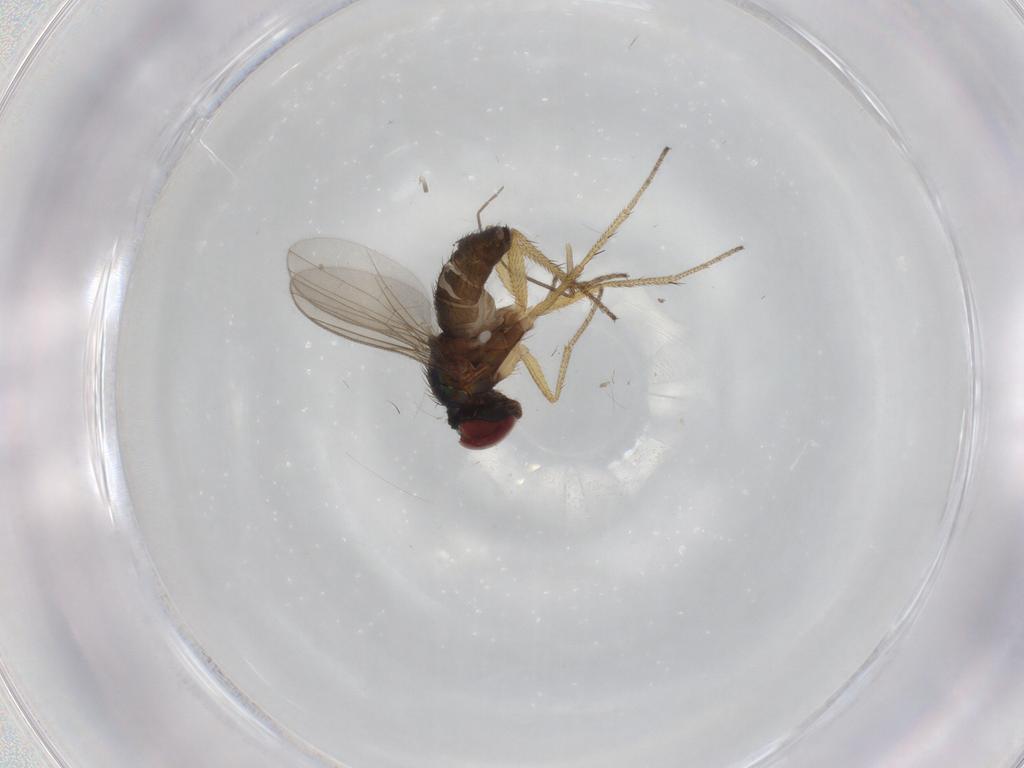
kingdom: Animalia
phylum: Arthropoda
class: Insecta
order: Diptera
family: Dolichopodidae
